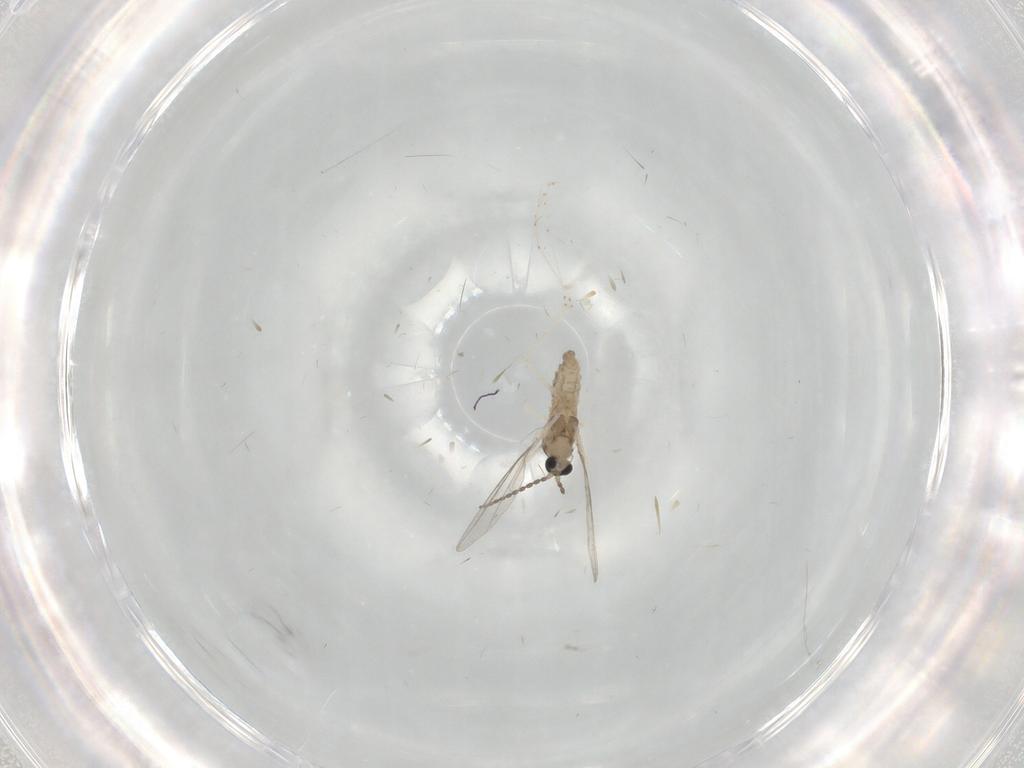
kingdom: Animalia
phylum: Arthropoda
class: Insecta
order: Diptera
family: Cecidomyiidae
